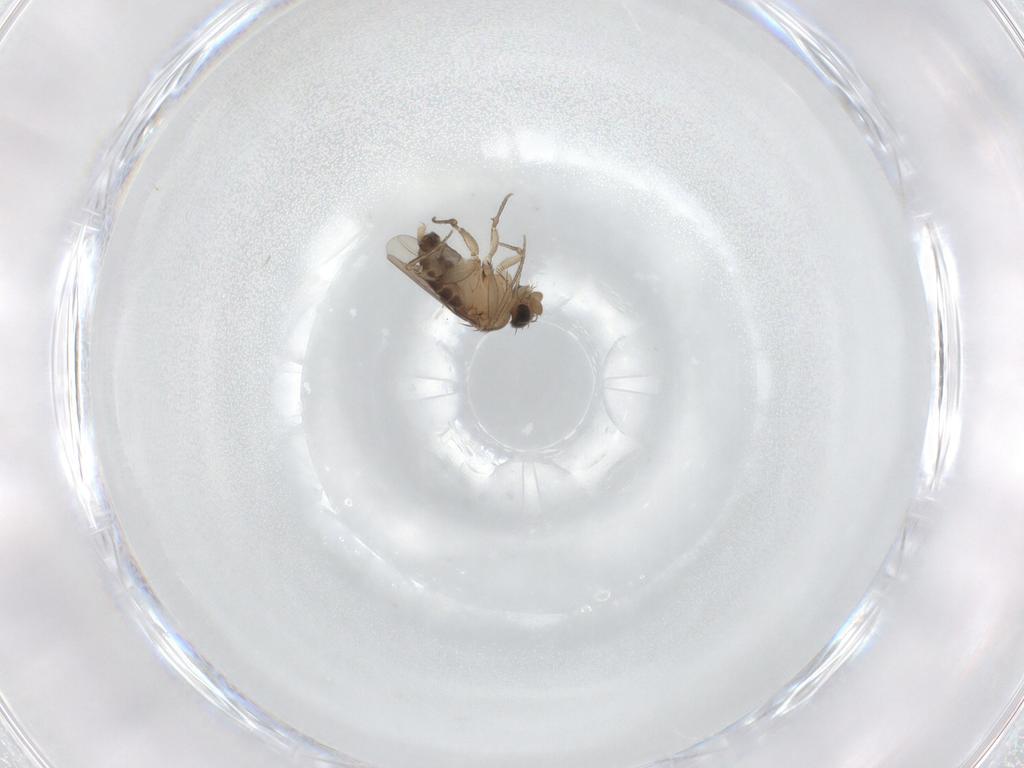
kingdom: Animalia
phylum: Arthropoda
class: Insecta
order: Diptera
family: Phoridae
